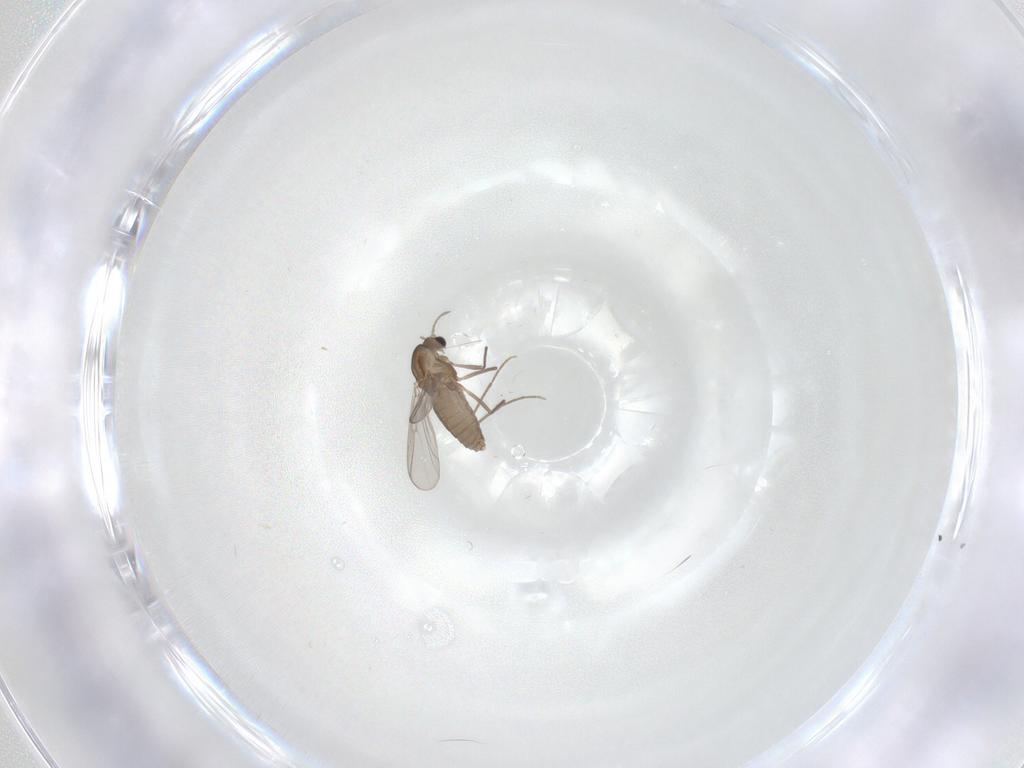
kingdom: Animalia
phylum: Arthropoda
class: Insecta
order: Diptera
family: Chironomidae
